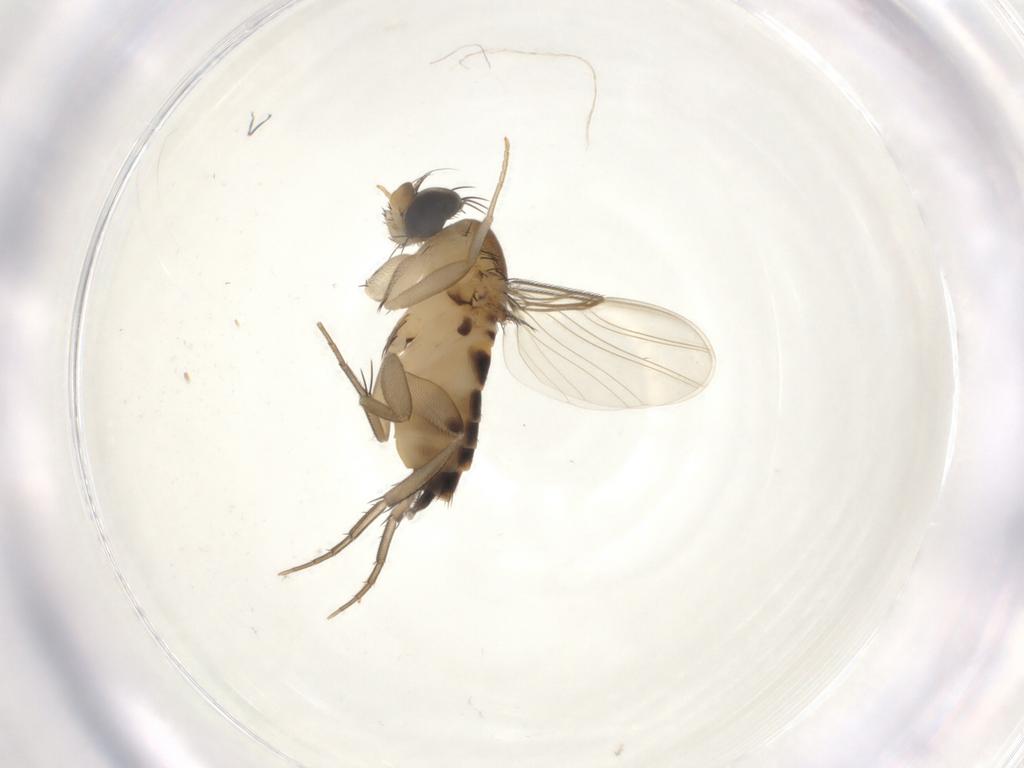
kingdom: Animalia
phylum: Arthropoda
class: Insecta
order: Diptera
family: Phoridae
